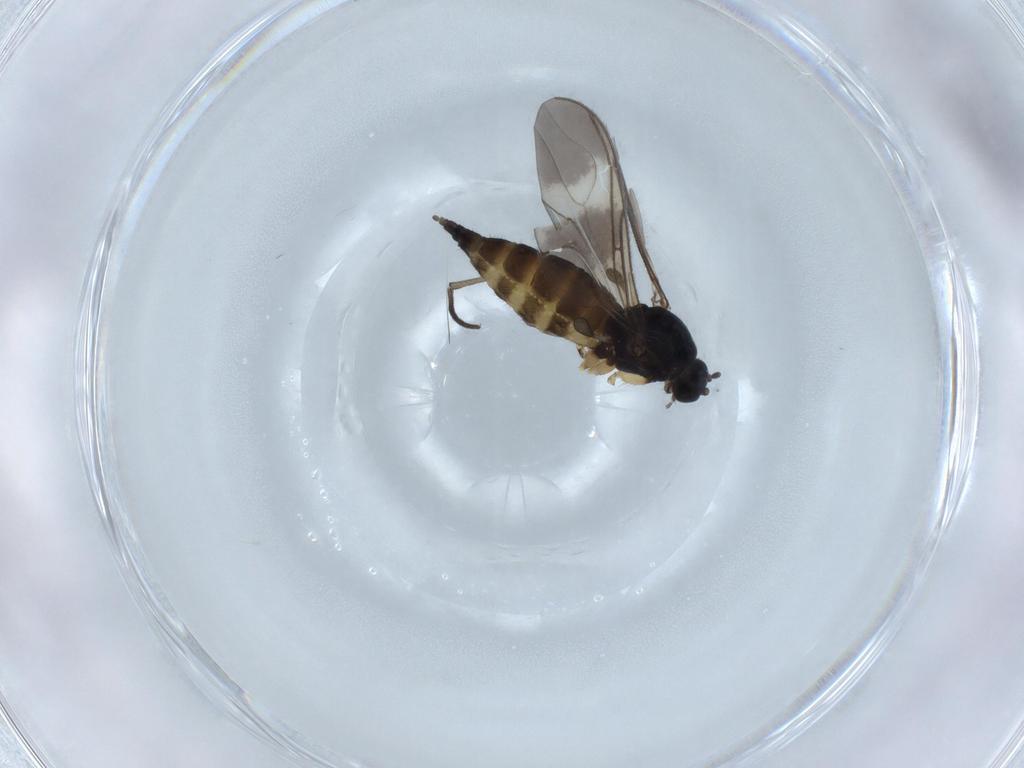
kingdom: Animalia
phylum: Arthropoda
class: Insecta
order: Diptera
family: Sciaridae
